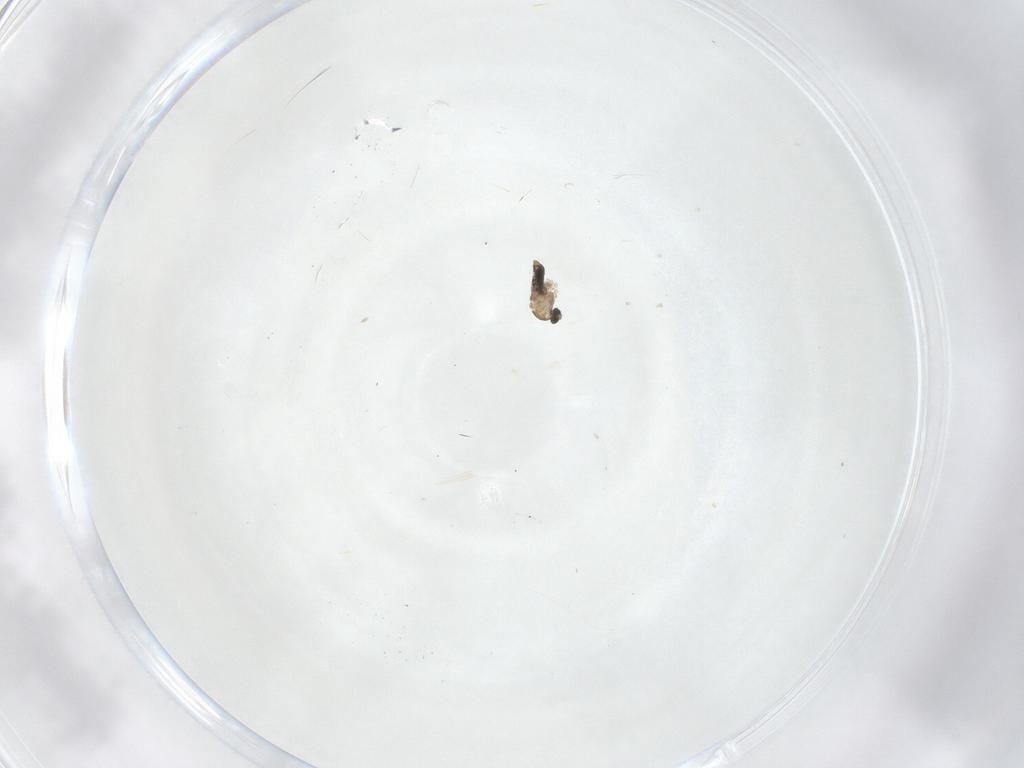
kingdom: Animalia
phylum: Arthropoda
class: Insecta
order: Diptera
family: Cecidomyiidae
